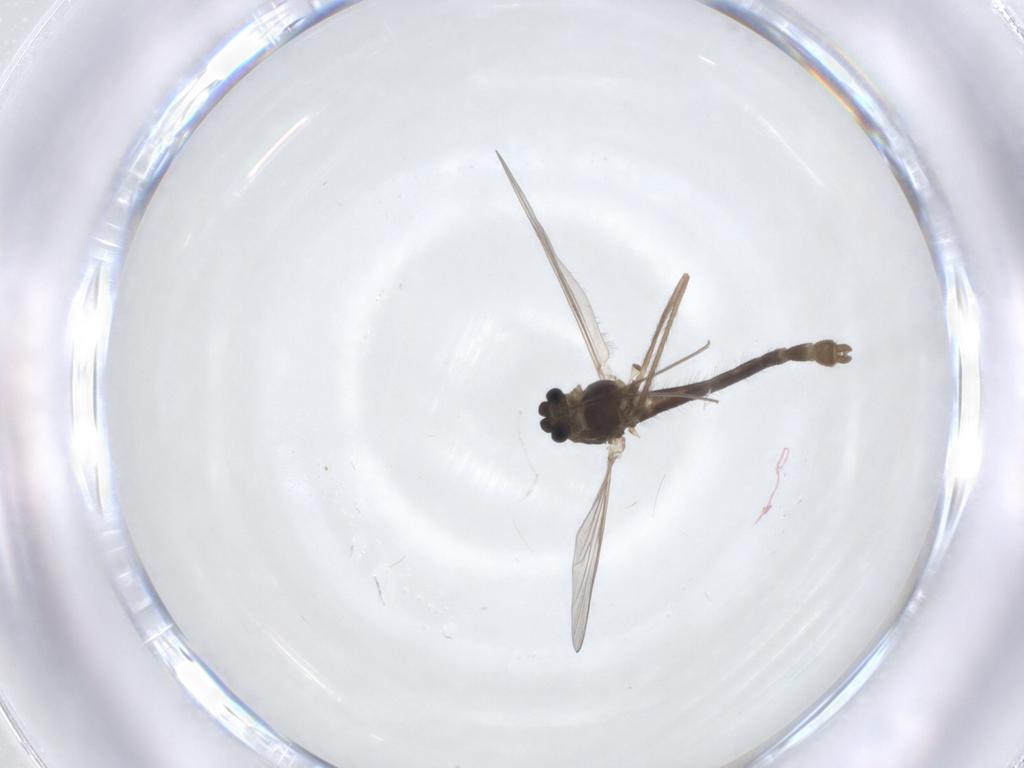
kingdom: Animalia
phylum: Arthropoda
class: Insecta
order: Diptera
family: Chironomidae
